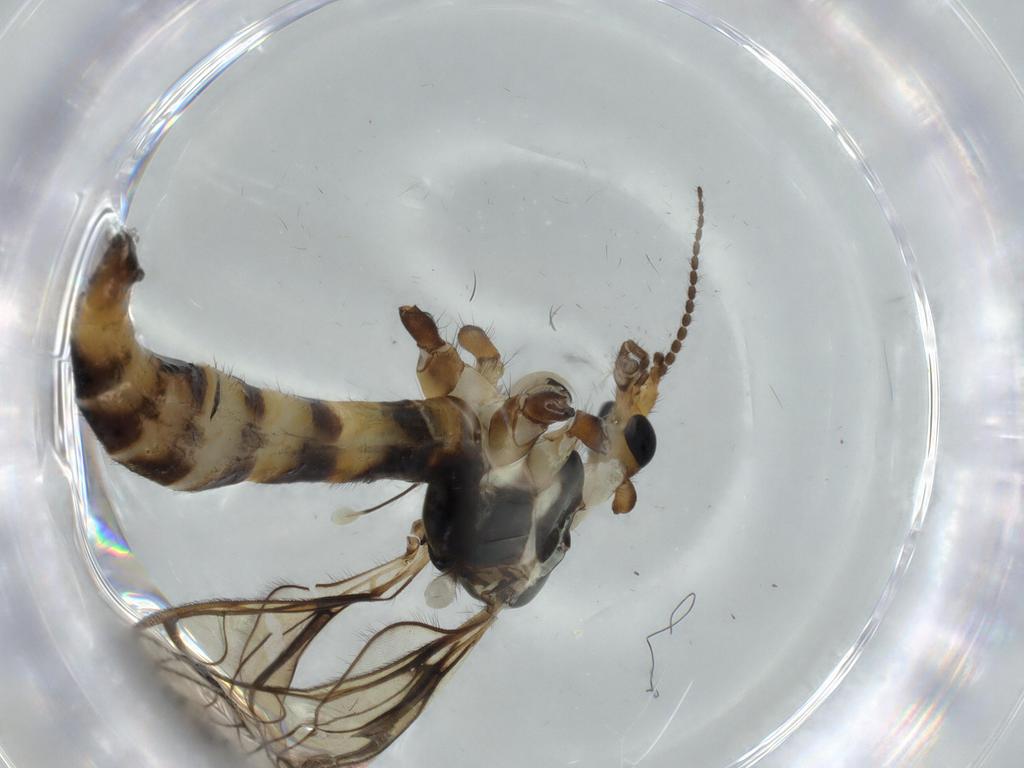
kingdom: Animalia
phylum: Arthropoda
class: Insecta
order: Diptera
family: Limoniidae
